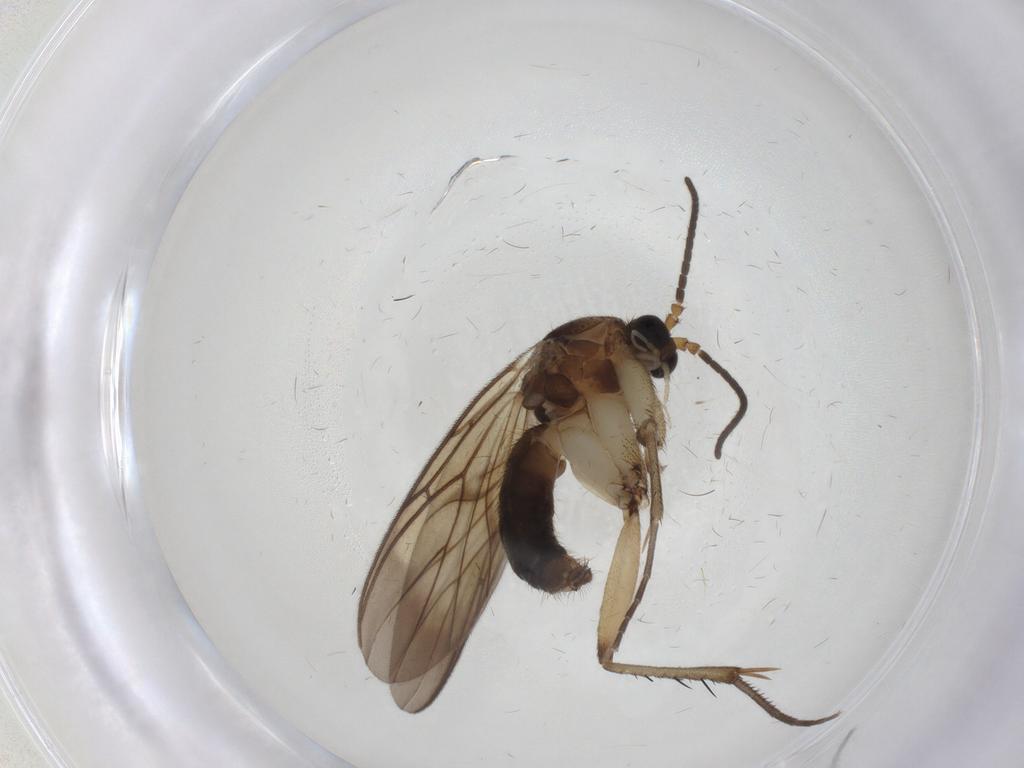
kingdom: Animalia
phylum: Arthropoda
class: Insecta
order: Diptera
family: Mycetophilidae
